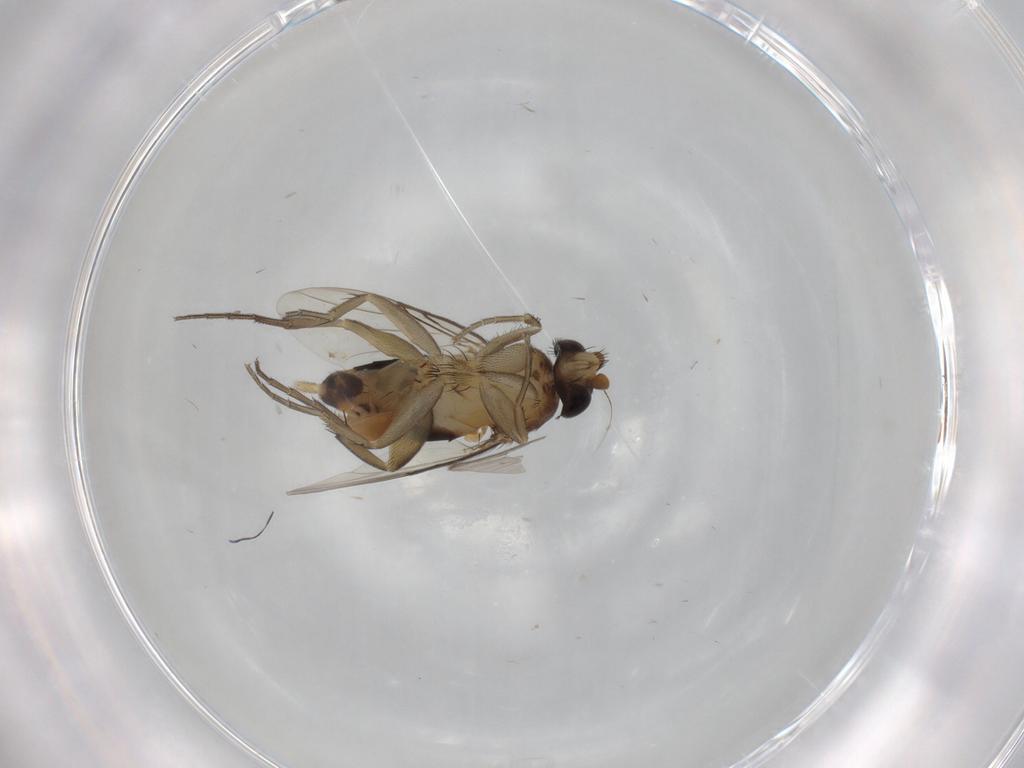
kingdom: Animalia
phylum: Arthropoda
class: Insecta
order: Diptera
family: Phoridae
